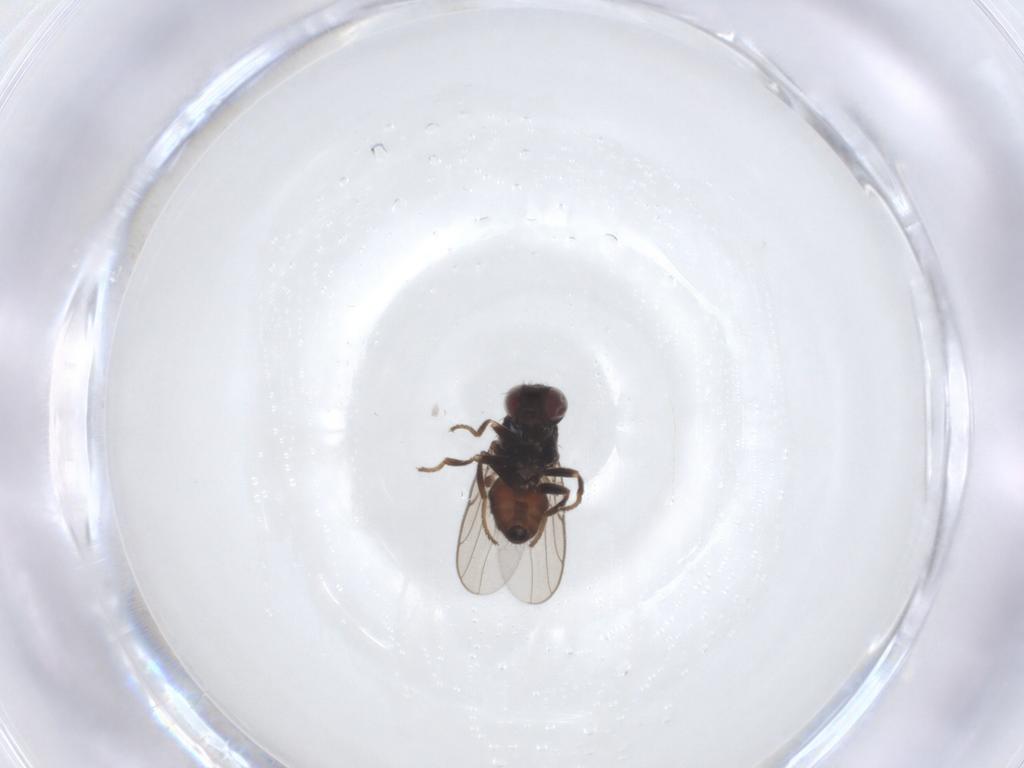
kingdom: Animalia
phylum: Arthropoda
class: Insecta
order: Diptera
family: Chloropidae
